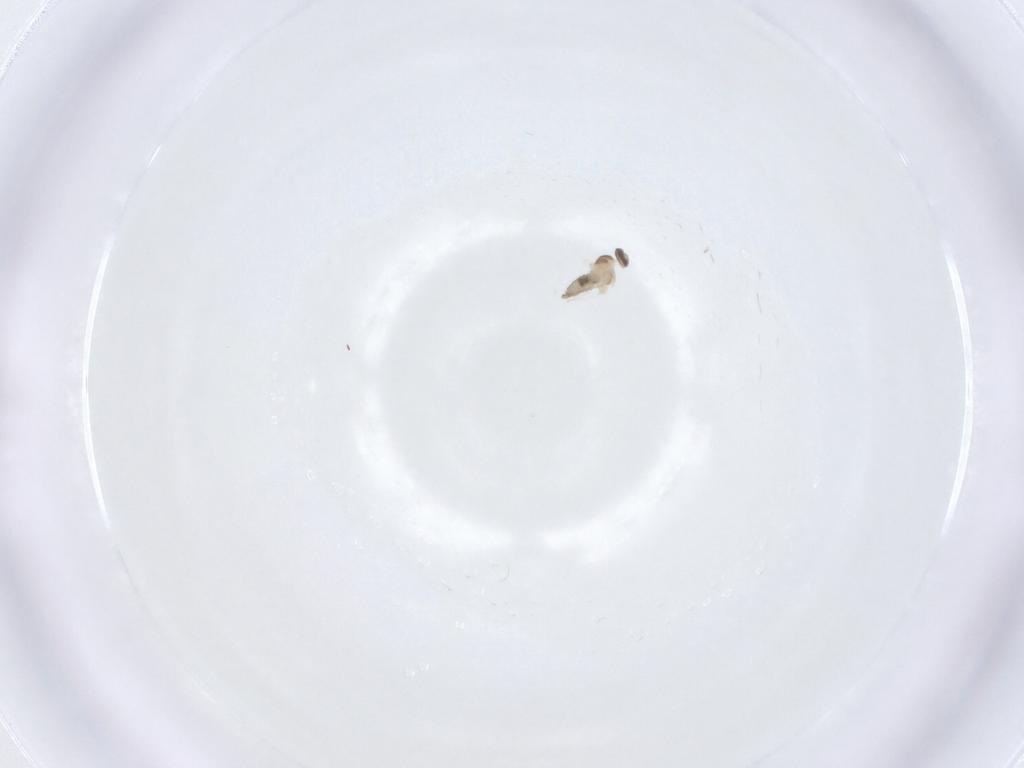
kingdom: Animalia
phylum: Arthropoda
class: Insecta
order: Diptera
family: Cecidomyiidae
